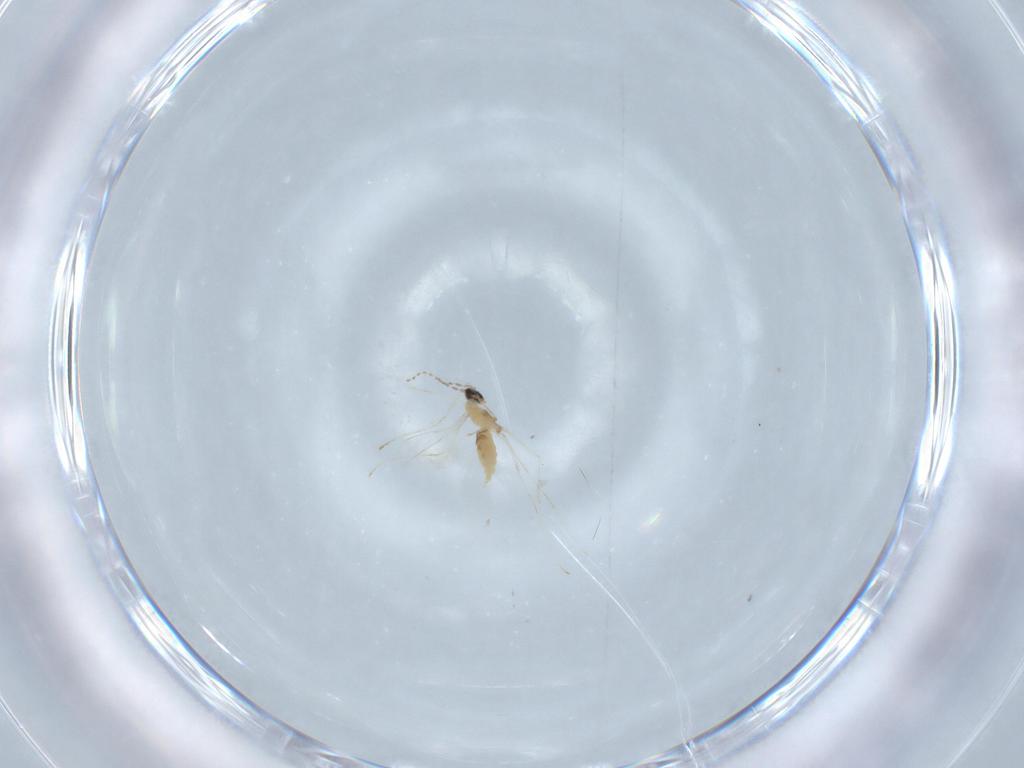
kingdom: Animalia
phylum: Arthropoda
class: Insecta
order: Diptera
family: Cecidomyiidae
